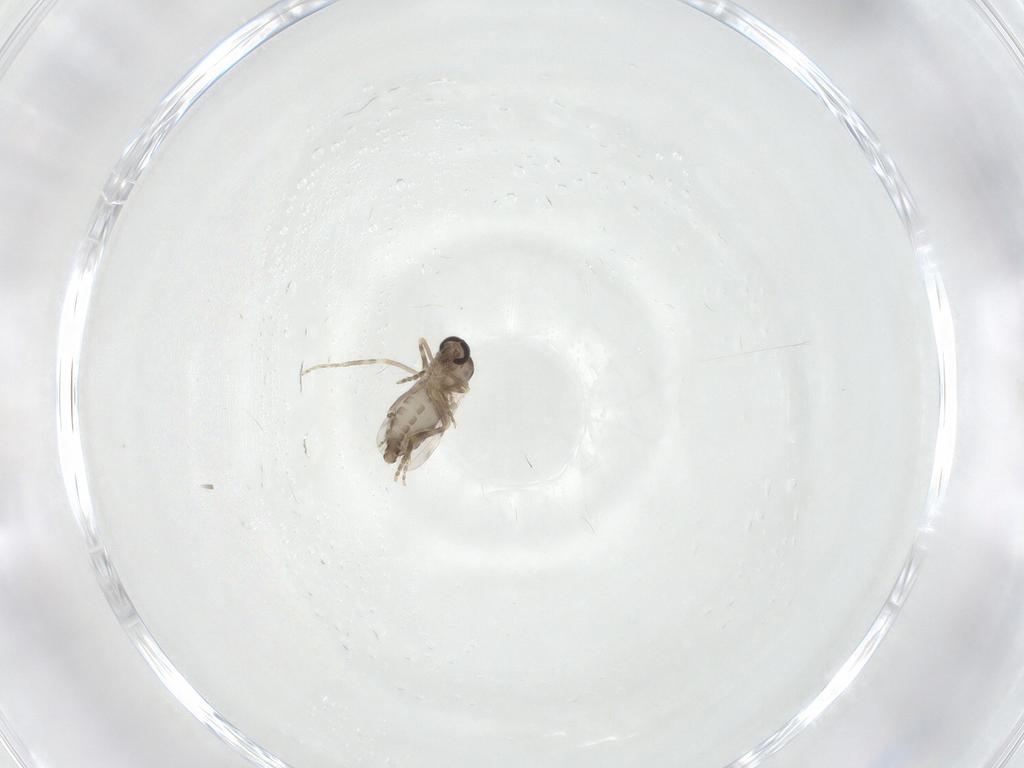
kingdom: Animalia
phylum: Arthropoda
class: Insecta
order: Diptera
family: Ceratopogonidae
